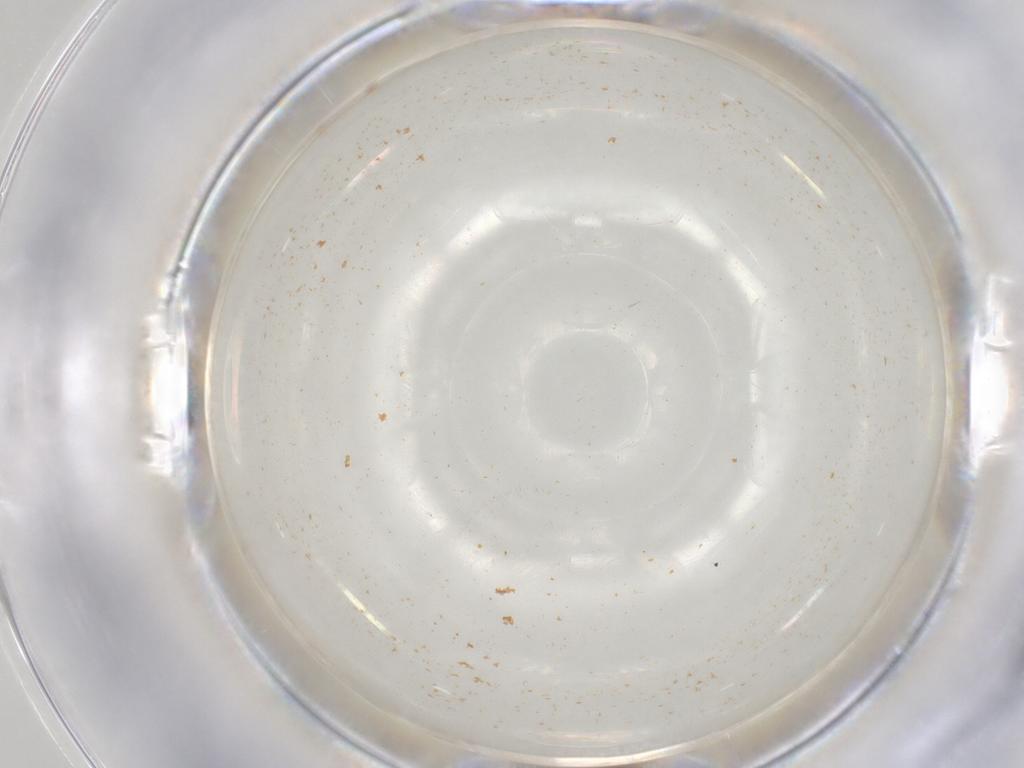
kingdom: Animalia
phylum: Arthropoda
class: Insecta
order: Diptera
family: Sciaridae
